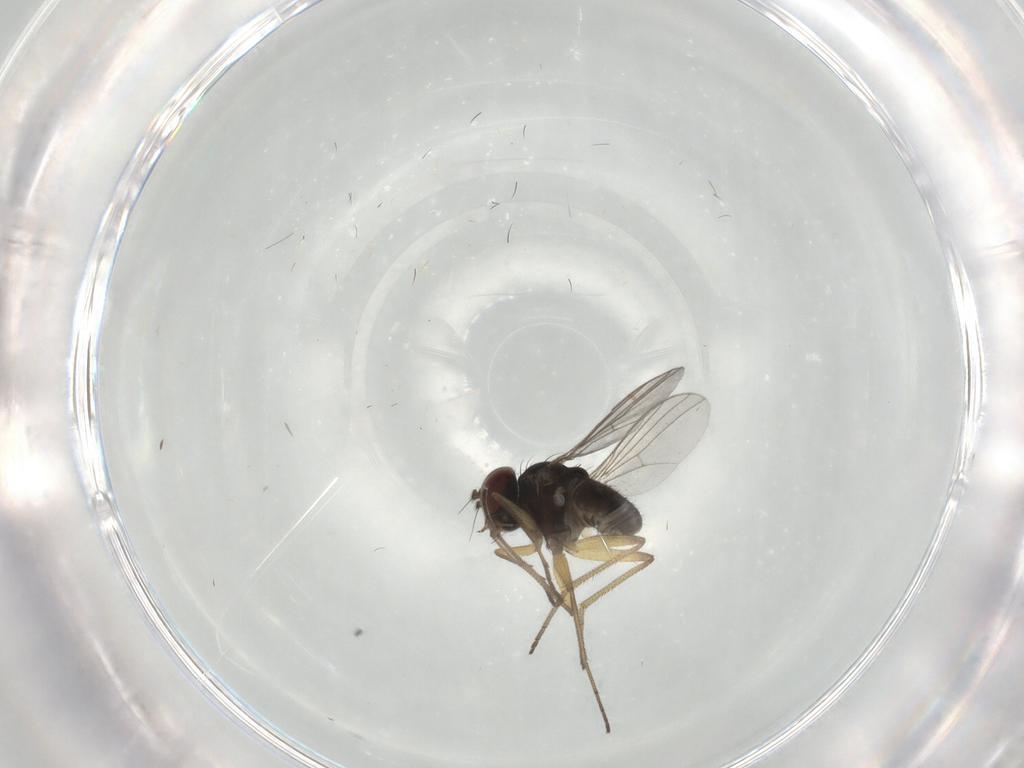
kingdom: Animalia
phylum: Arthropoda
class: Insecta
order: Diptera
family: Dolichopodidae
